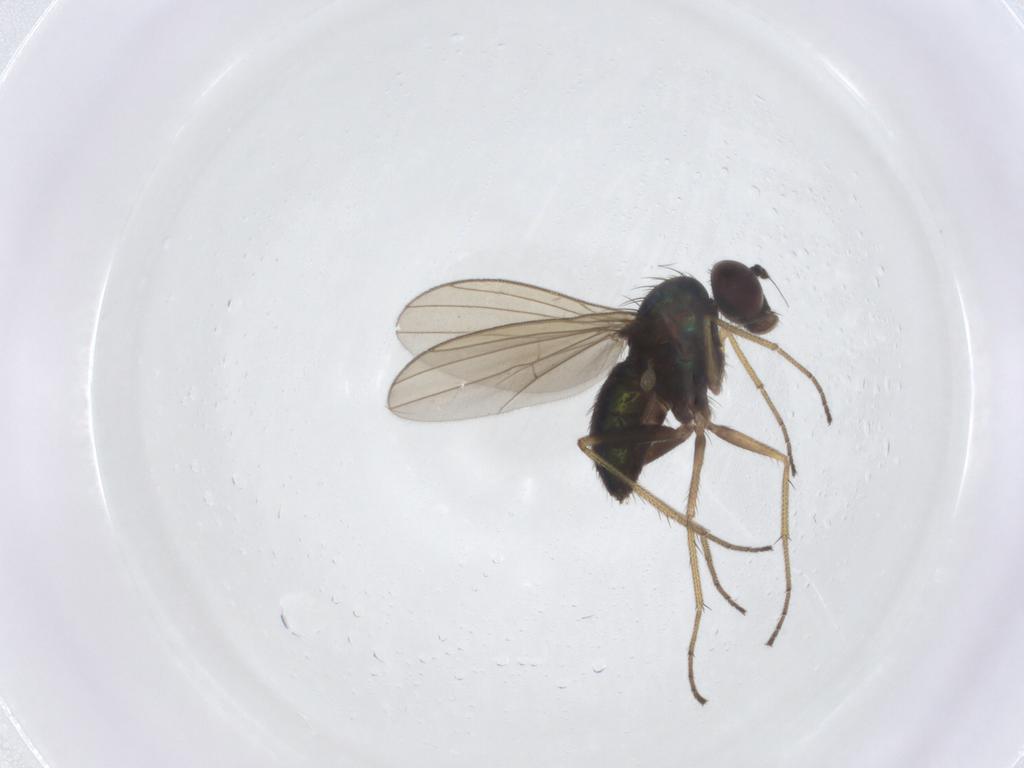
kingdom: Animalia
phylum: Arthropoda
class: Insecta
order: Diptera
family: Dolichopodidae
